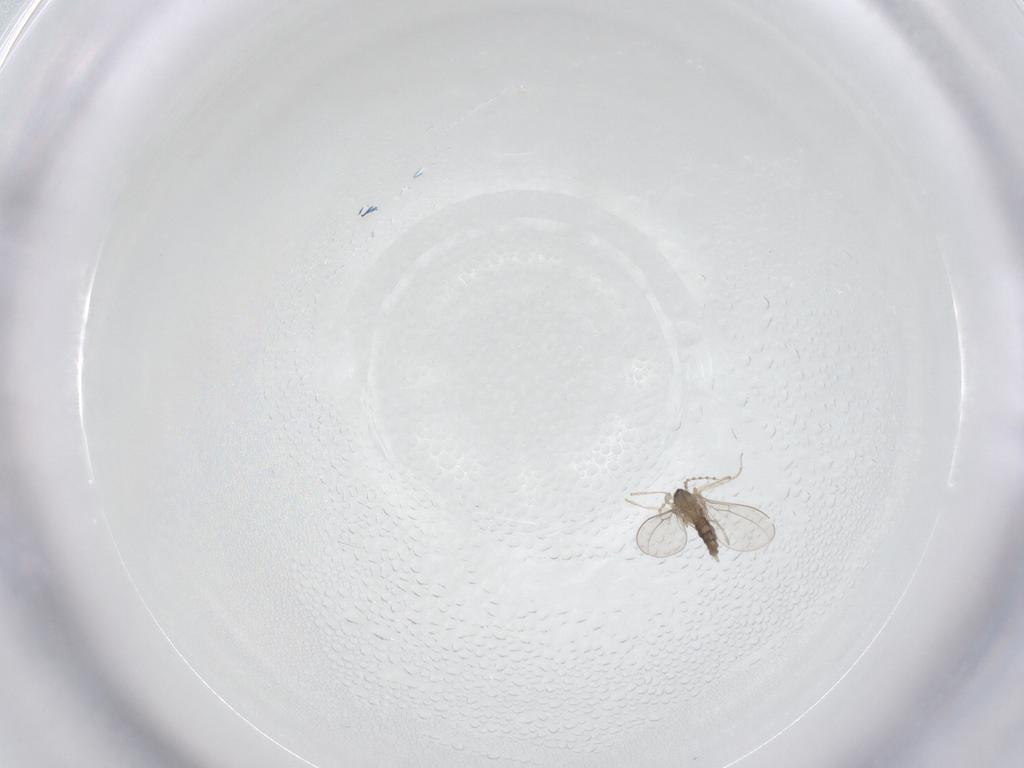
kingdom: Animalia
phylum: Arthropoda
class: Insecta
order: Diptera
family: Cecidomyiidae
